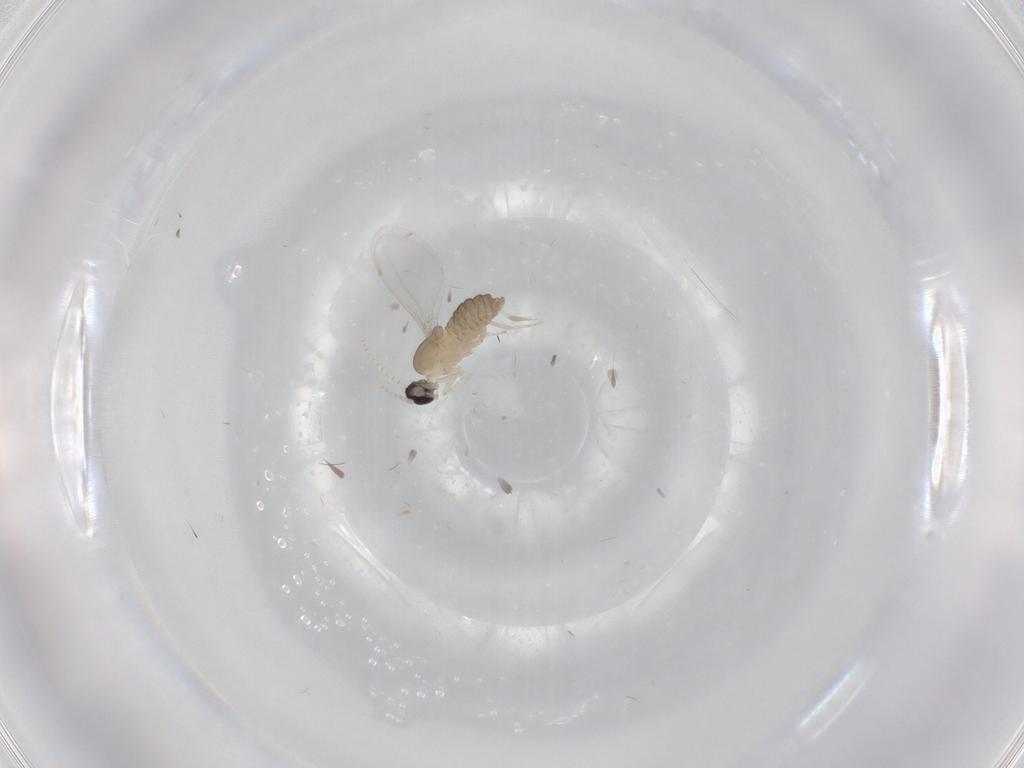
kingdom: Animalia
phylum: Arthropoda
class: Insecta
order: Diptera
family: Cecidomyiidae
